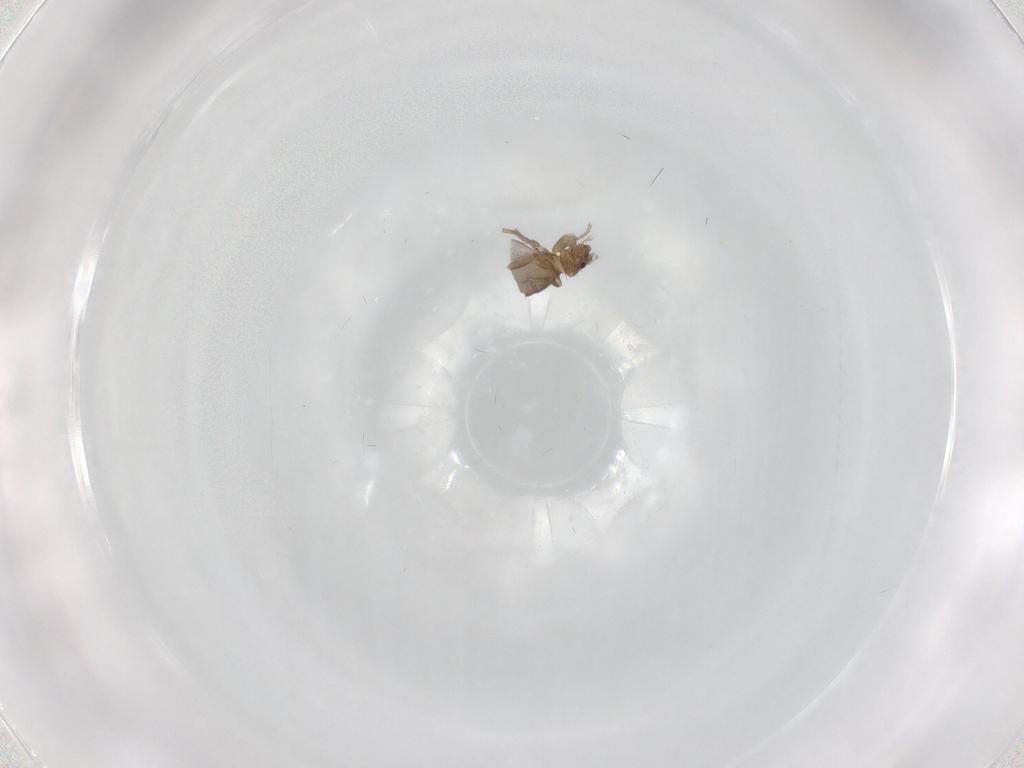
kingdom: Animalia
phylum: Arthropoda
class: Insecta
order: Diptera
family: Phoridae
